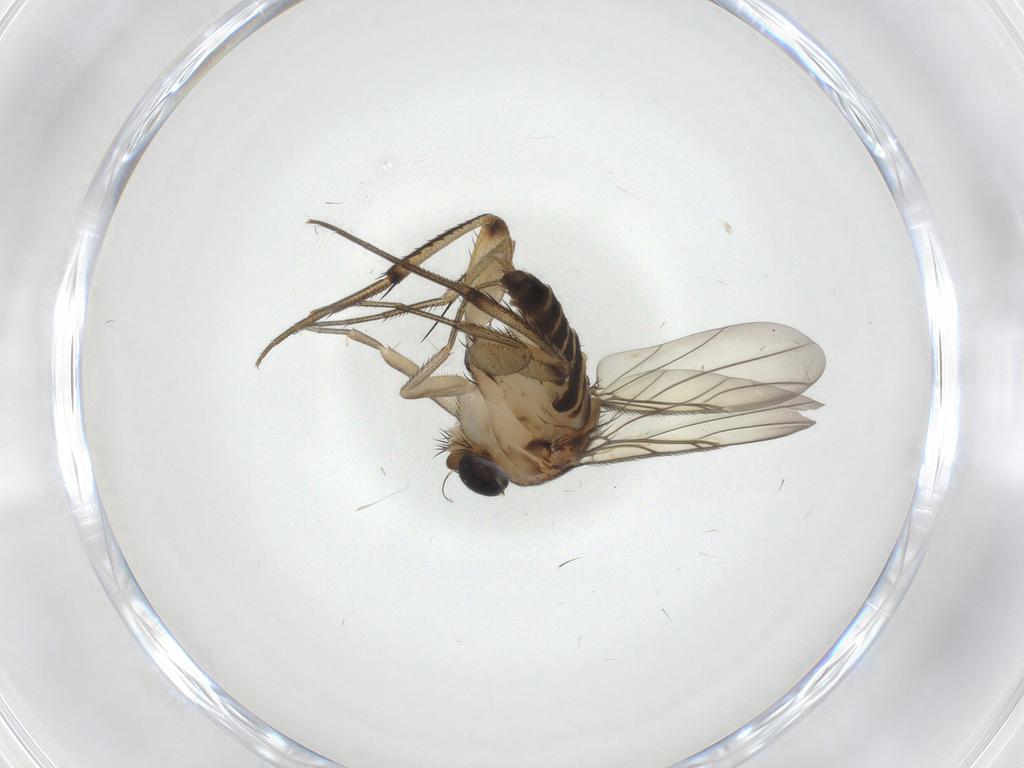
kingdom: Animalia
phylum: Arthropoda
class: Insecta
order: Diptera
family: Phoridae
